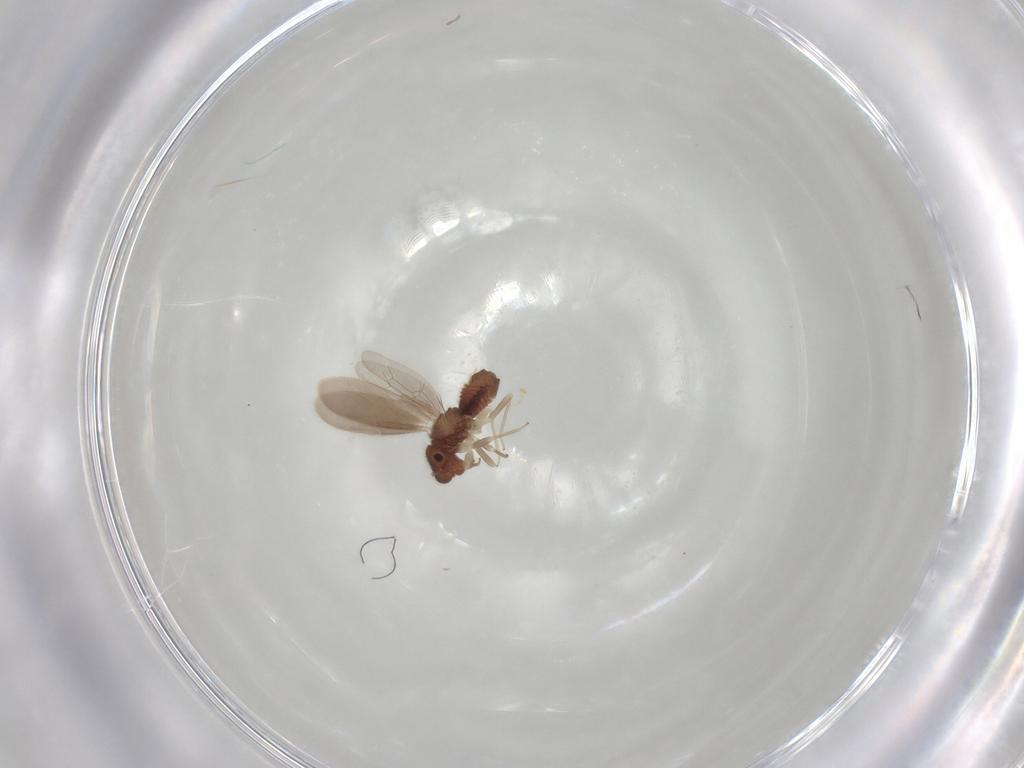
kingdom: Animalia
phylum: Arthropoda
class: Insecta
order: Psocodea
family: Archipsocidae
